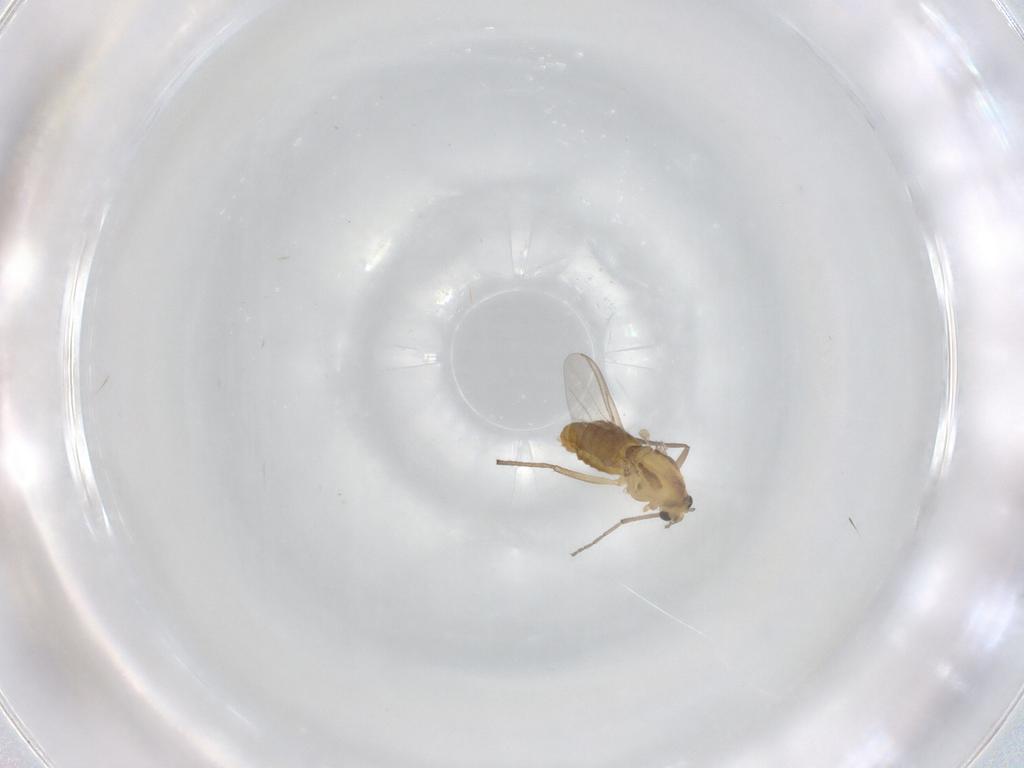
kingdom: Animalia
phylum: Arthropoda
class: Insecta
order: Diptera
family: Chironomidae
